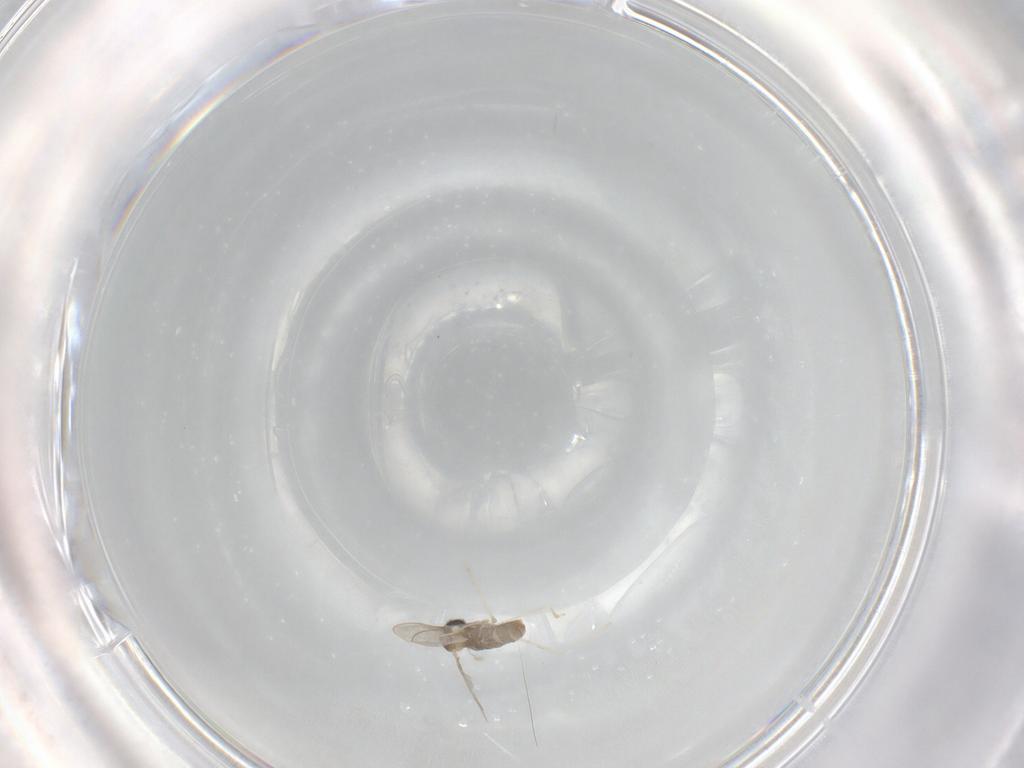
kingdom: Animalia
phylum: Arthropoda
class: Insecta
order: Diptera
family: Cecidomyiidae
